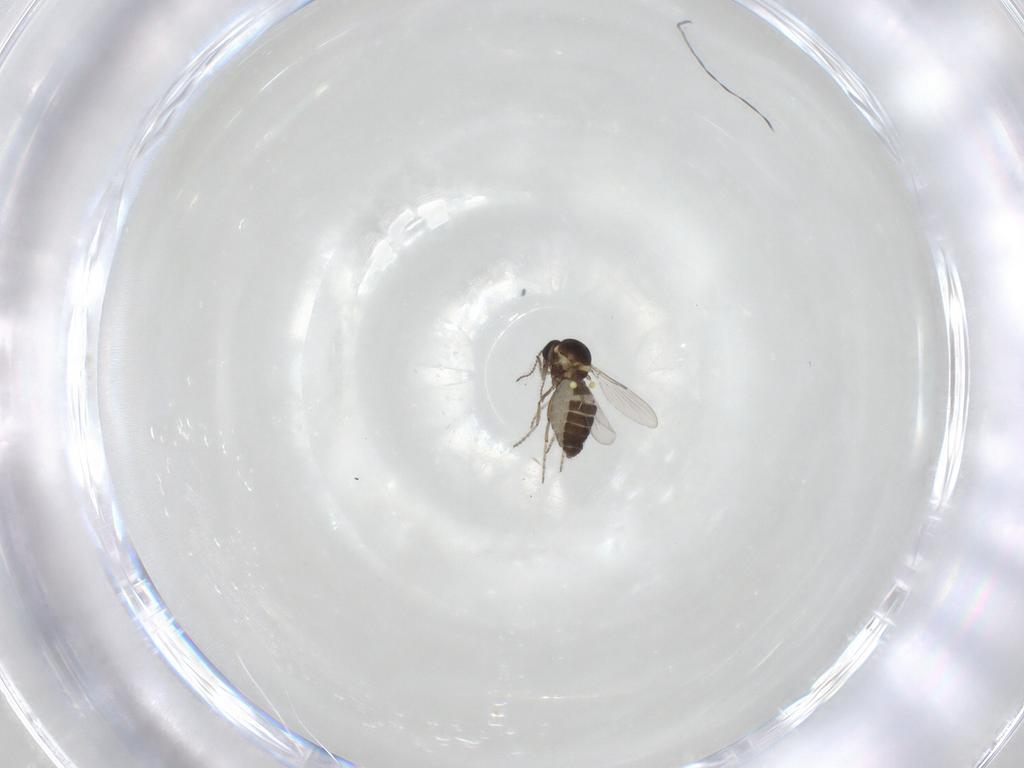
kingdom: Animalia
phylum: Arthropoda
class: Insecta
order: Diptera
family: Ceratopogonidae
